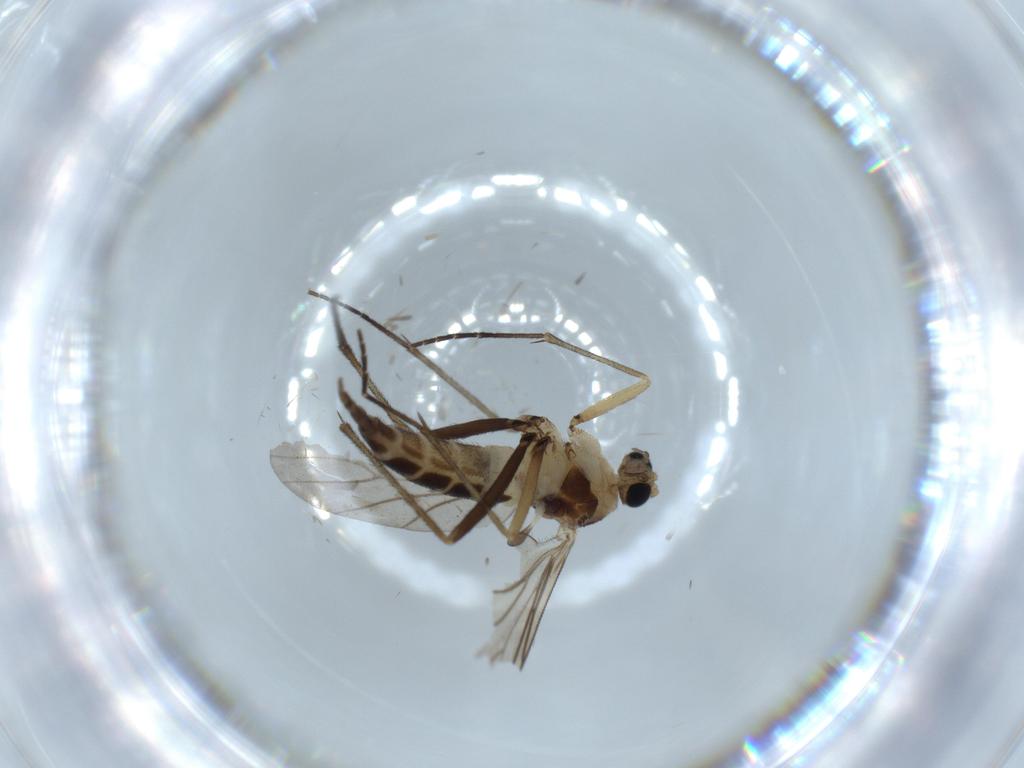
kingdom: Animalia
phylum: Arthropoda
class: Insecta
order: Diptera
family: Sciaridae
